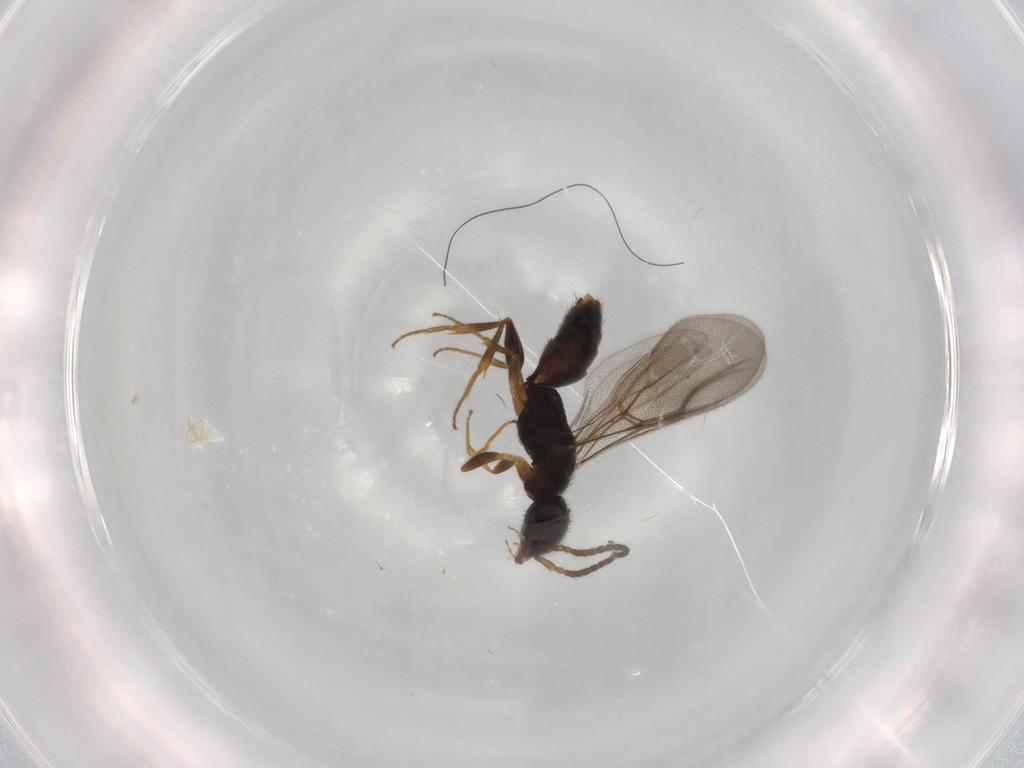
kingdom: Animalia
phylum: Arthropoda
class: Insecta
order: Hymenoptera
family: Bethylidae
